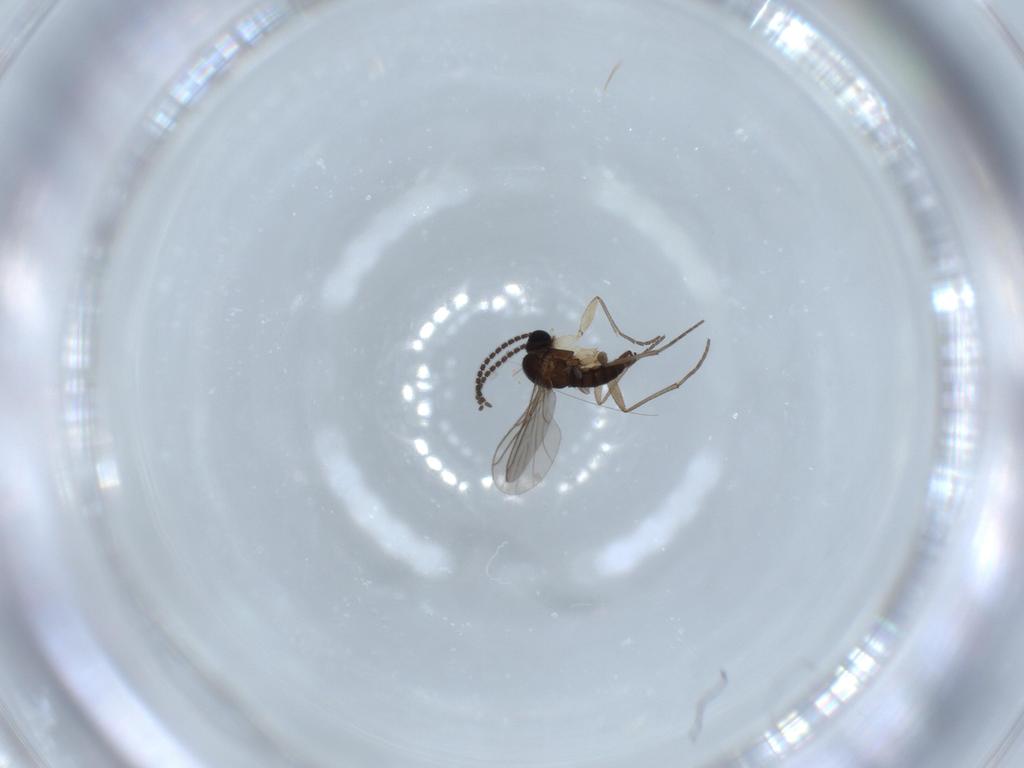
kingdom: Animalia
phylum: Arthropoda
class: Insecta
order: Diptera
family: Sciaridae
